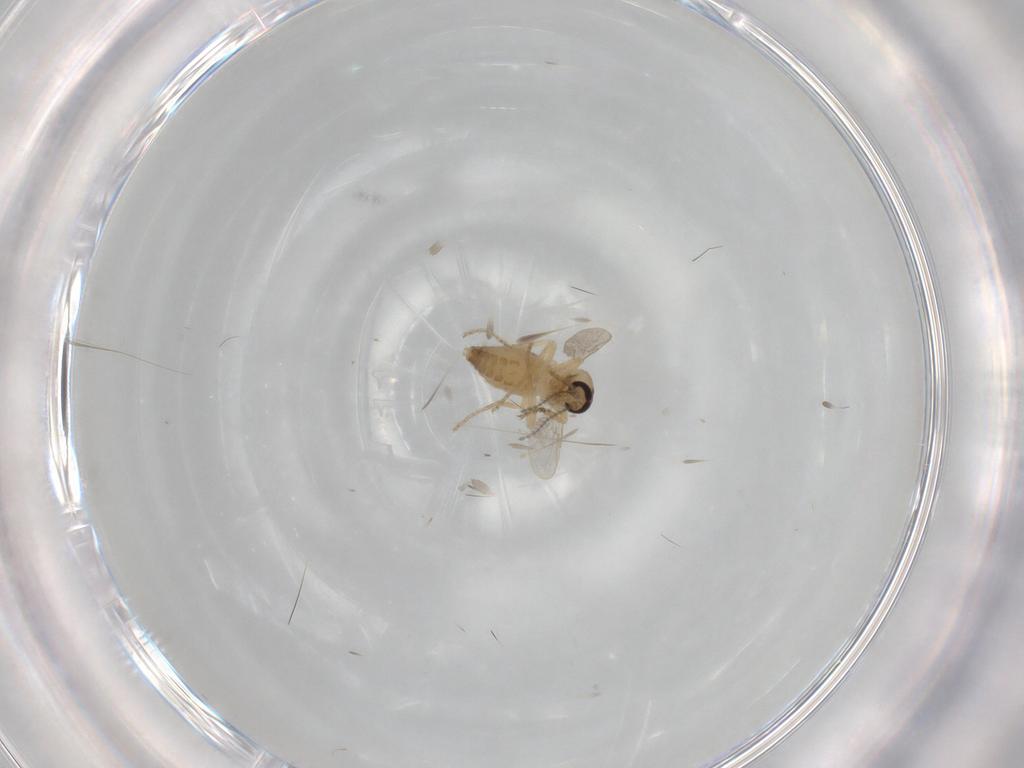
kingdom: Animalia
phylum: Arthropoda
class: Insecta
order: Diptera
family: Ceratopogonidae
